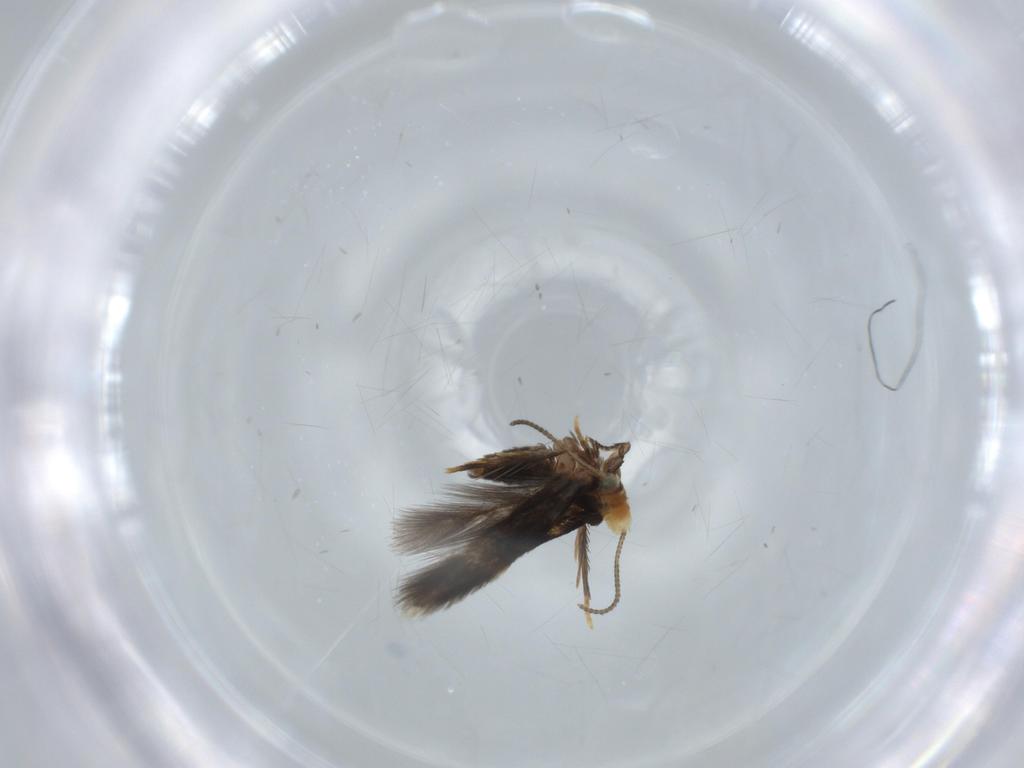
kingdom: Animalia
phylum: Arthropoda
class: Insecta
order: Lepidoptera
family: Nepticulidae
